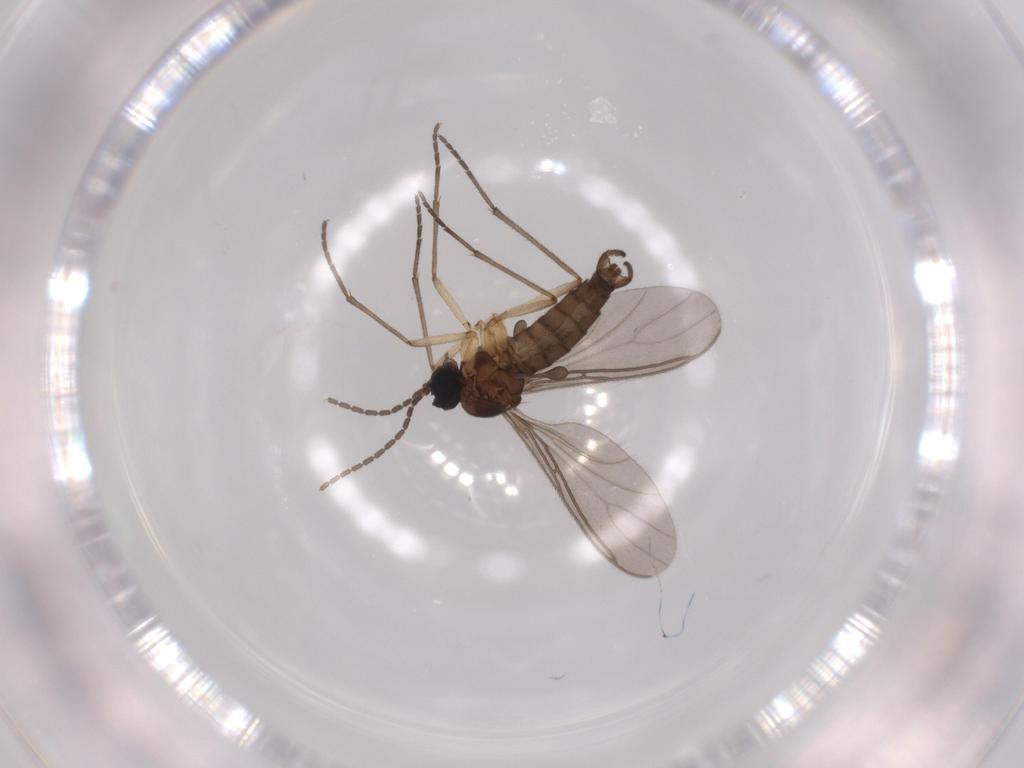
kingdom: Animalia
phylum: Arthropoda
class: Insecta
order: Diptera
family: Sciaridae
